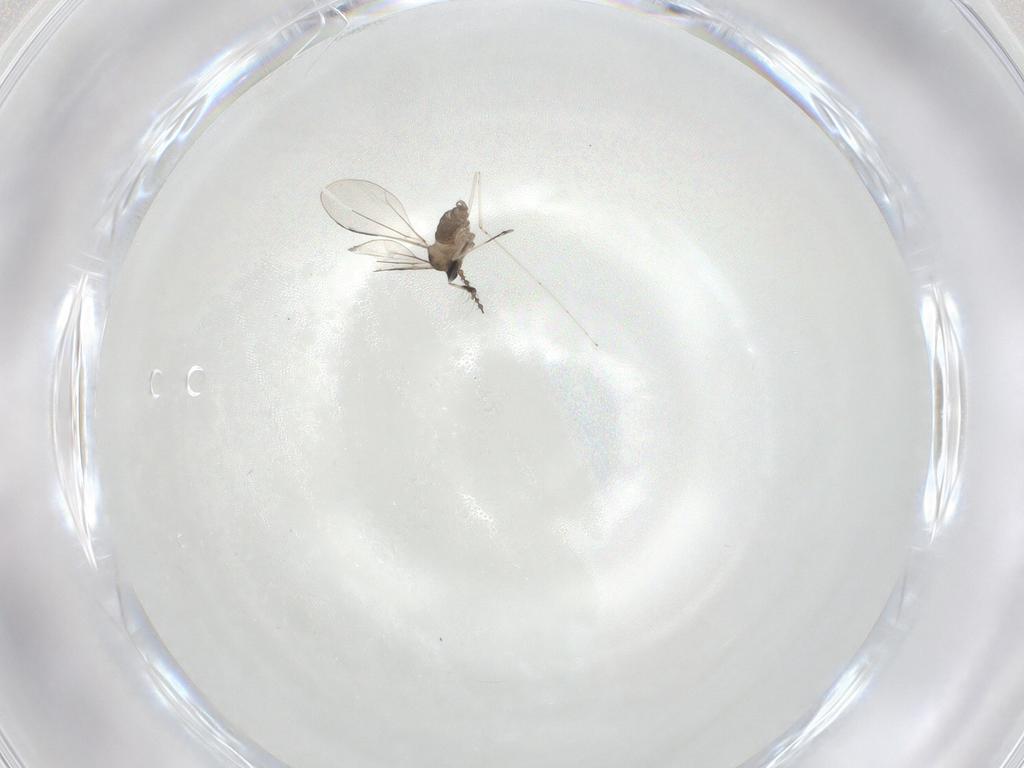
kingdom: Animalia
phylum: Arthropoda
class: Insecta
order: Diptera
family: Cecidomyiidae
